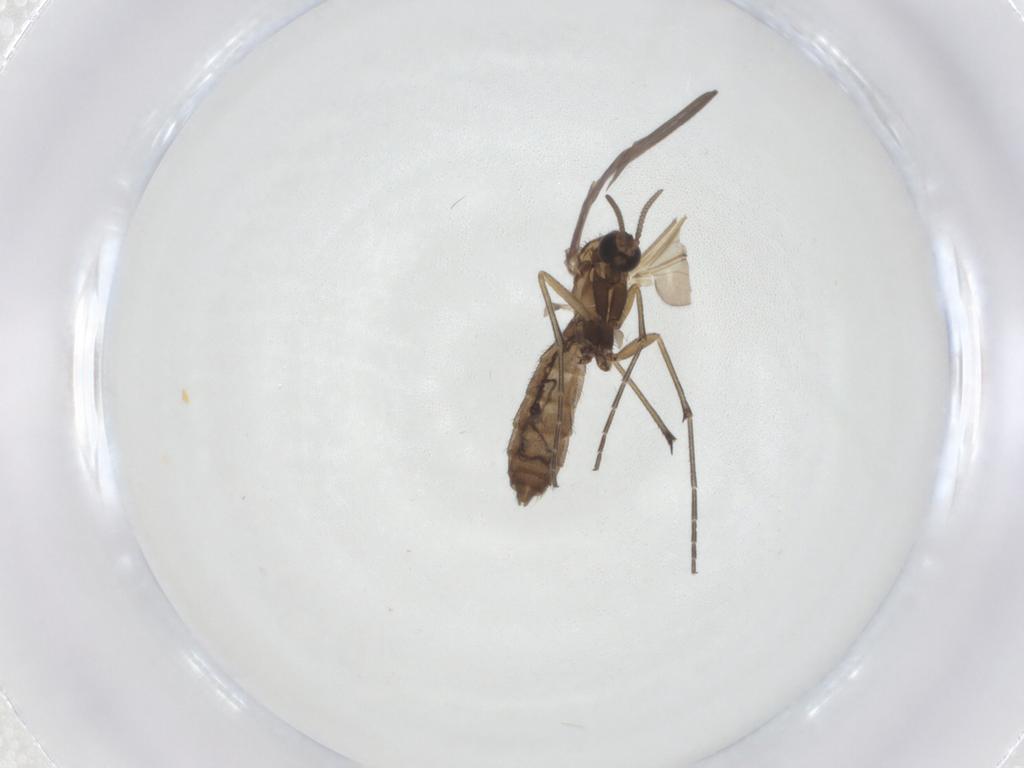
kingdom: Animalia
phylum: Arthropoda
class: Insecta
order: Diptera
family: Keroplatidae
